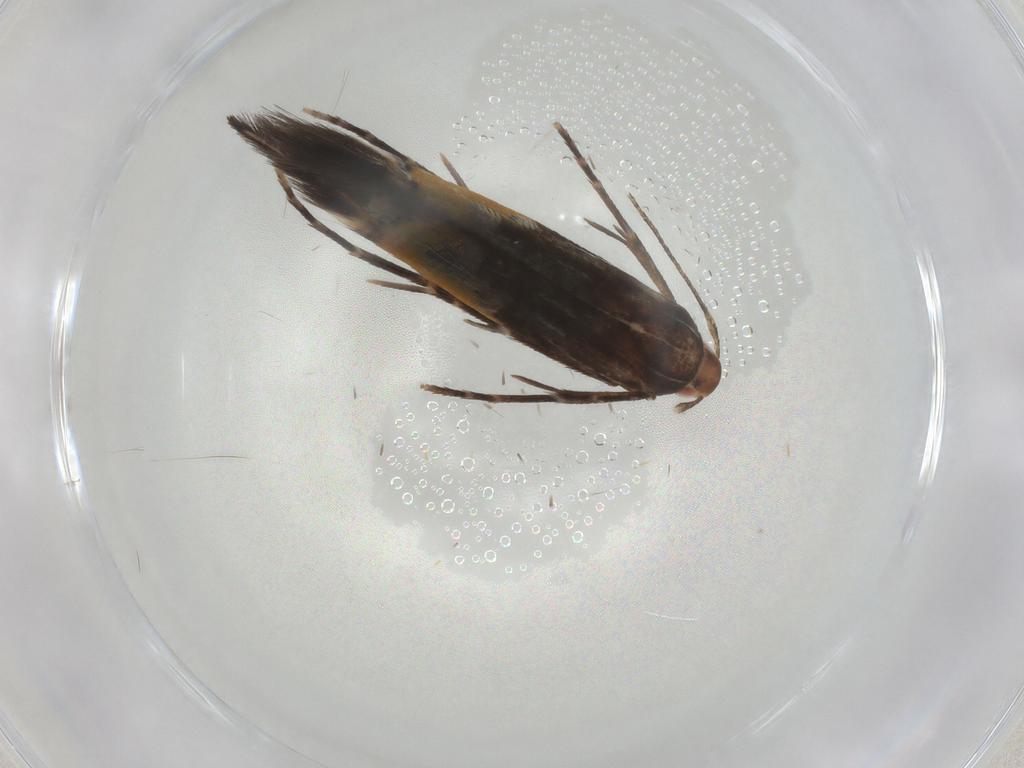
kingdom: Animalia
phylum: Arthropoda
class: Insecta
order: Lepidoptera
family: Cosmopterigidae
